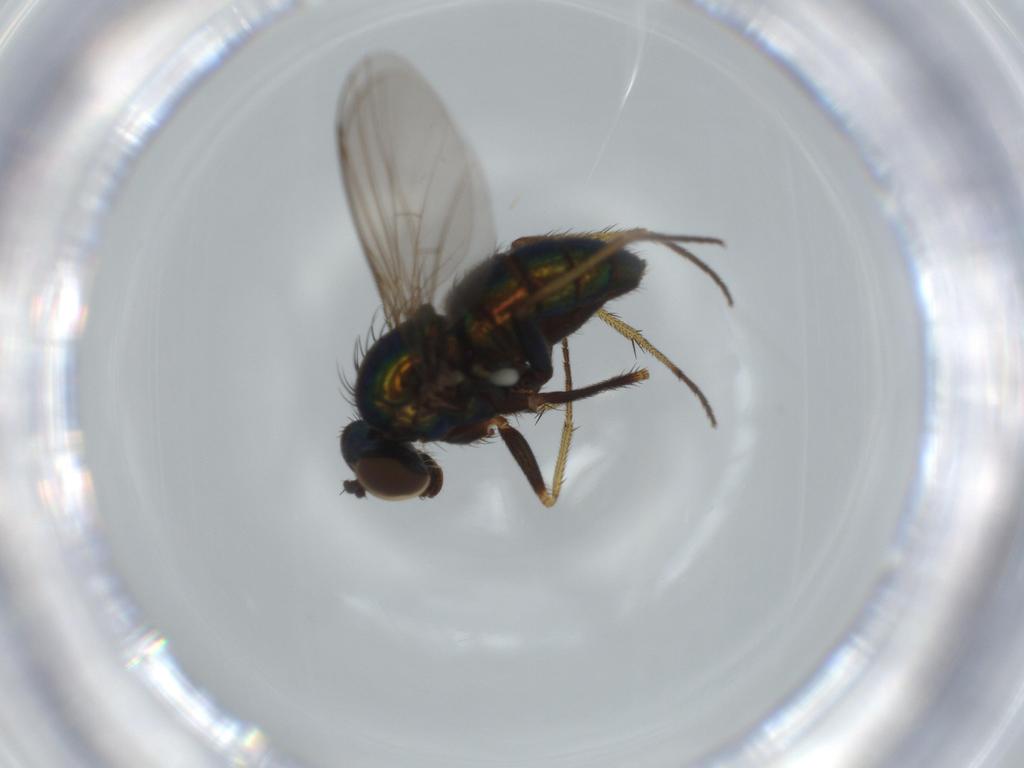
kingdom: Animalia
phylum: Arthropoda
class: Insecta
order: Diptera
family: Dolichopodidae
